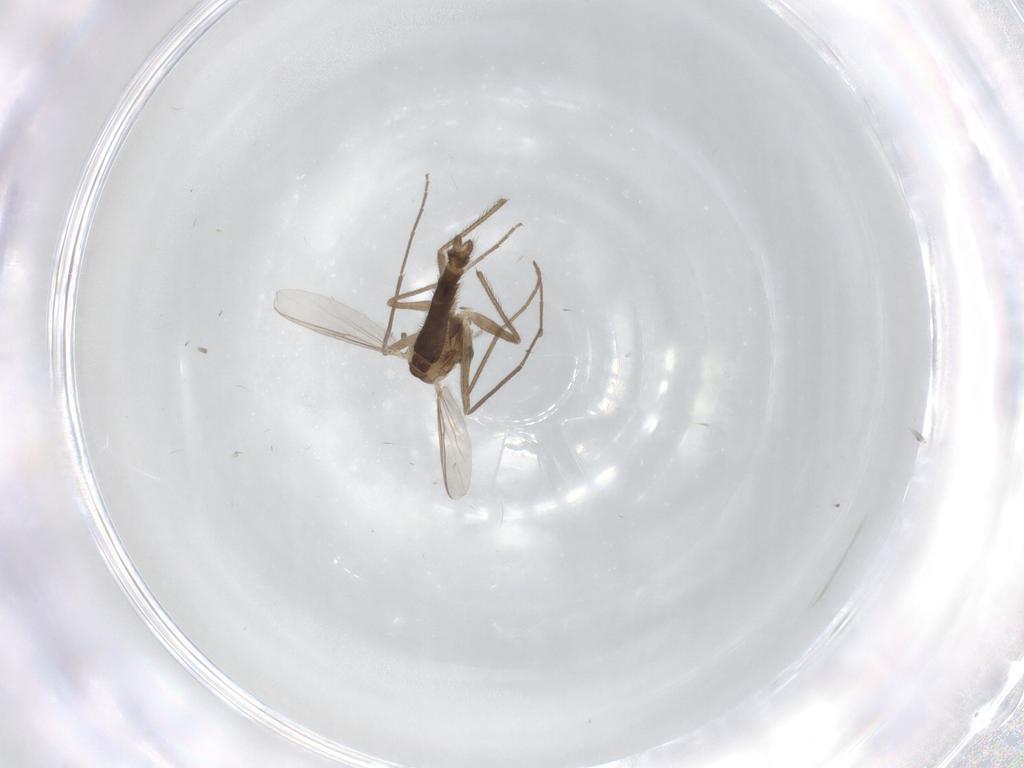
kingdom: Animalia
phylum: Arthropoda
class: Insecta
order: Diptera
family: Chironomidae
